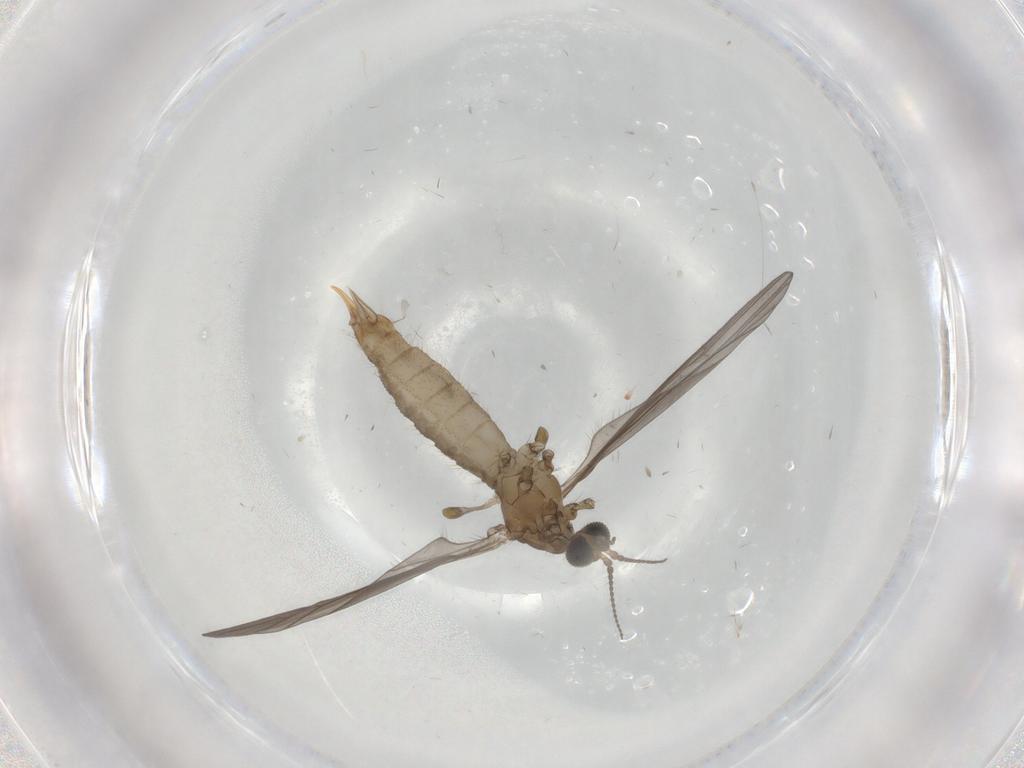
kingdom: Animalia
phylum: Arthropoda
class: Insecta
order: Diptera
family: Limoniidae
